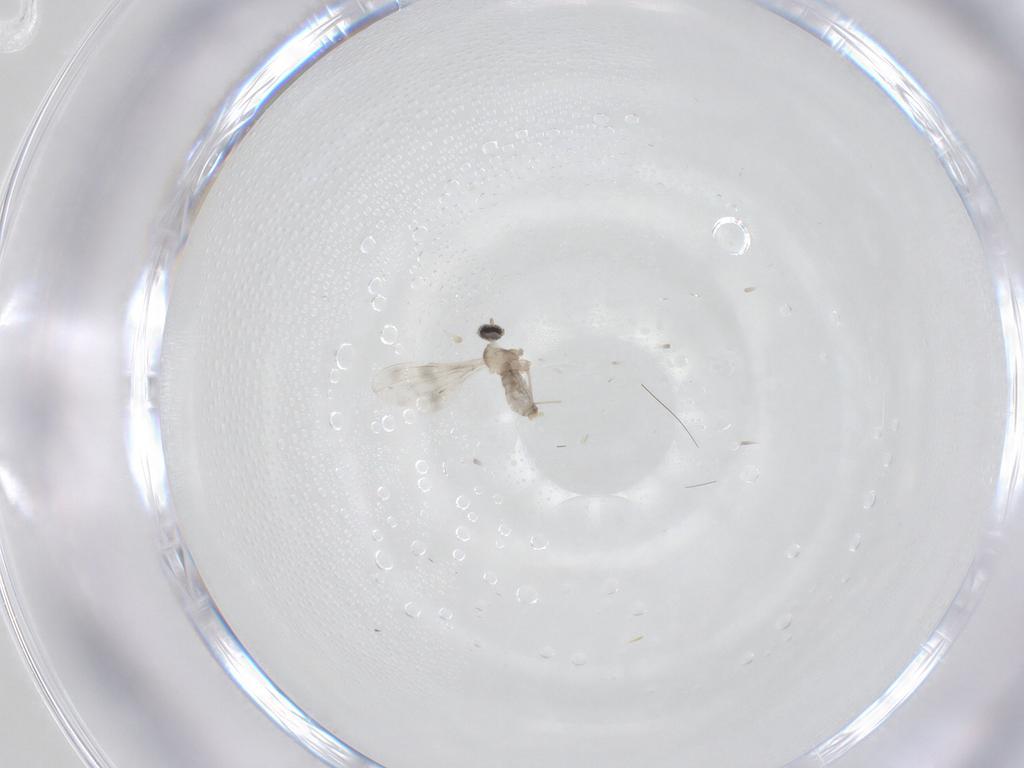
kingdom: Animalia
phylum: Arthropoda
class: Insecta
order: Diptera
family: Cecidomyiidae
